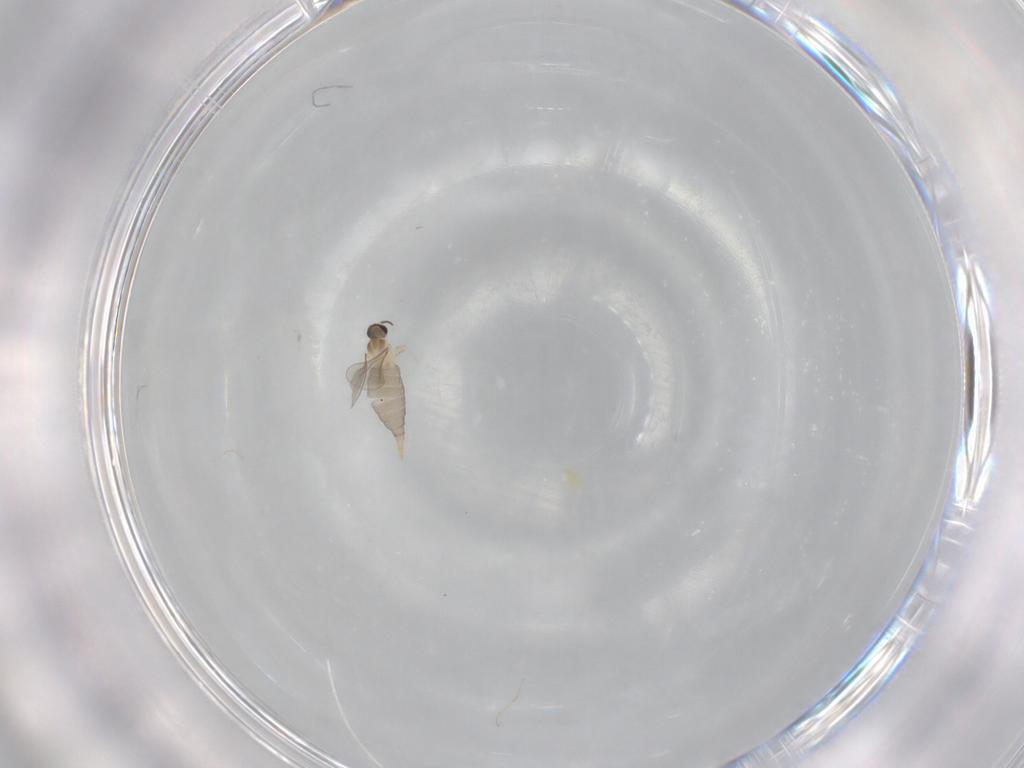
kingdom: Animalia
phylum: Arthropoda
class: Insecta
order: Diptera
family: Cecidomyiidae
